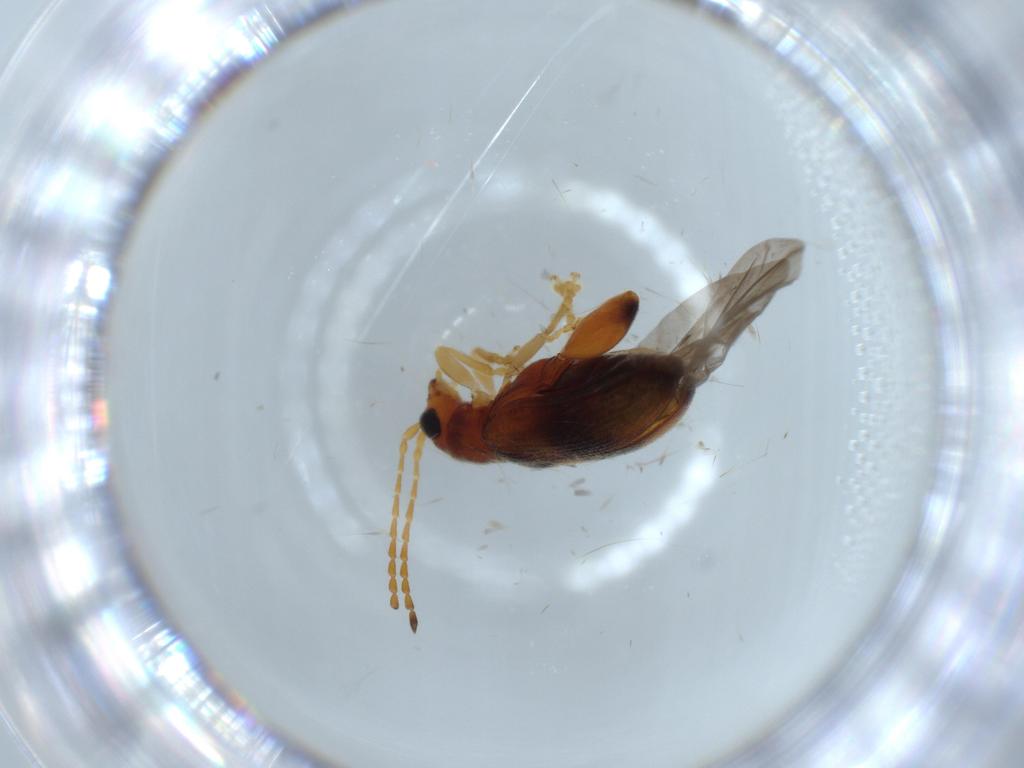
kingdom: Animalia
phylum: Arthropoda
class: Insecta
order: Coleoptera
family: Chrysomelidae
